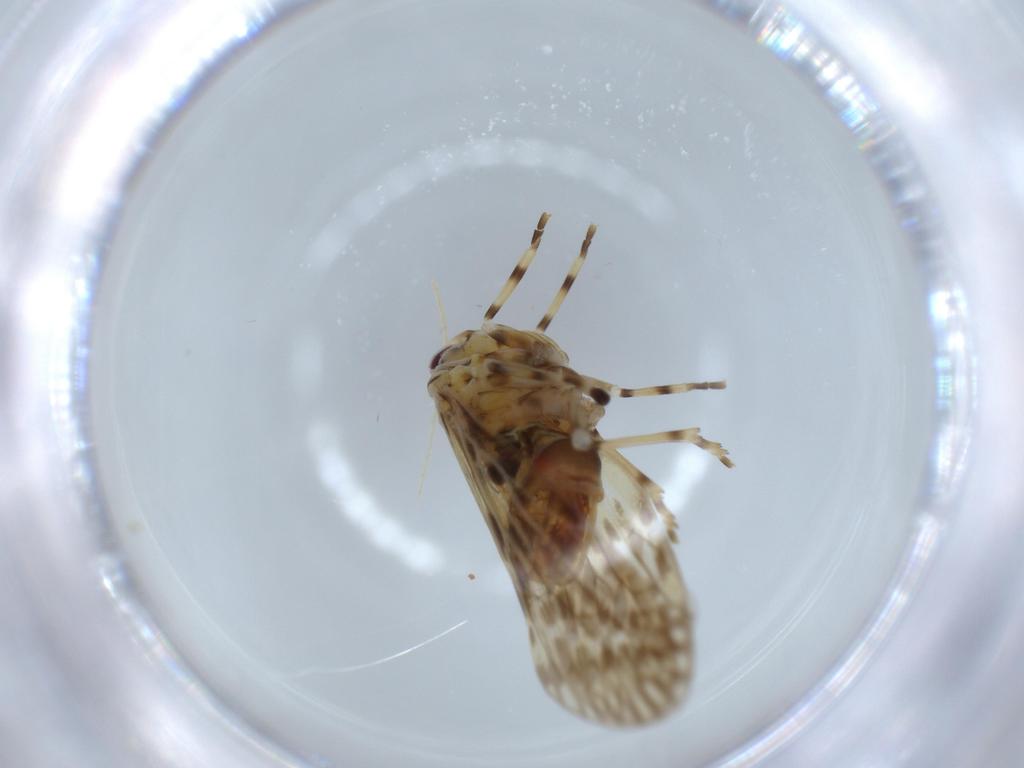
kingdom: Animalia
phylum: Arthropoda
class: Insecta
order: Hemiptera
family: Derbidae
